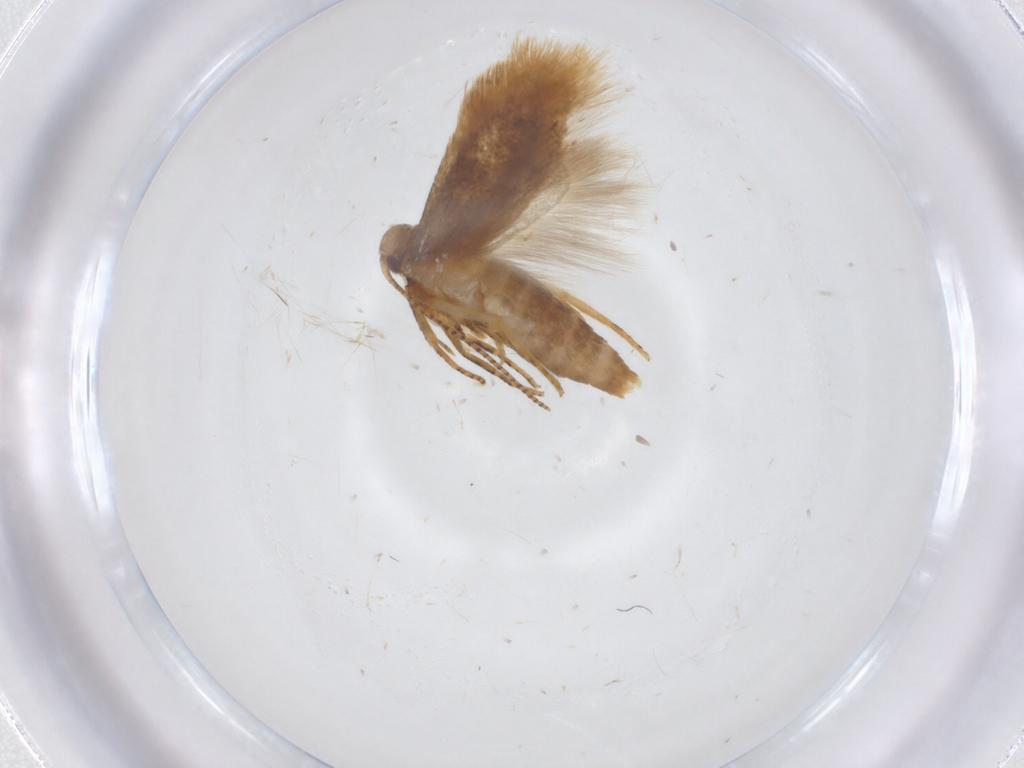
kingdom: Animalia
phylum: Arthropoda
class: Insecta
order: Lepidoptera
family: Gelechiidae
